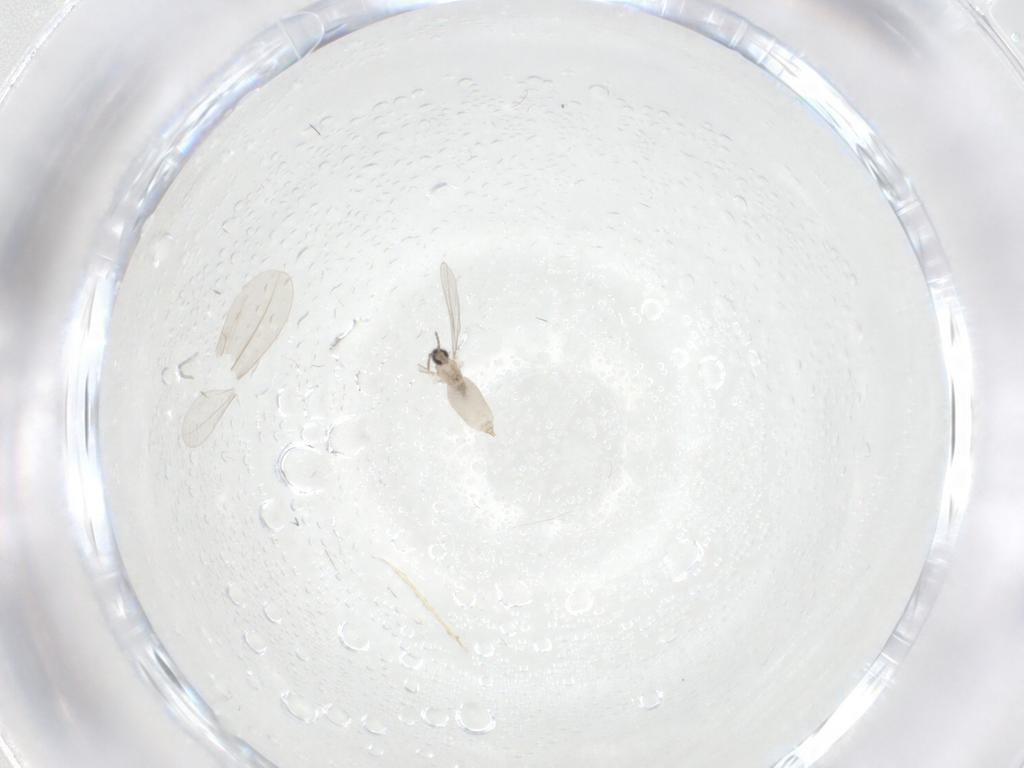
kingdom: Animalia
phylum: Arthropoda
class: Insecta
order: Diptera
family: Cecidomyiidae
